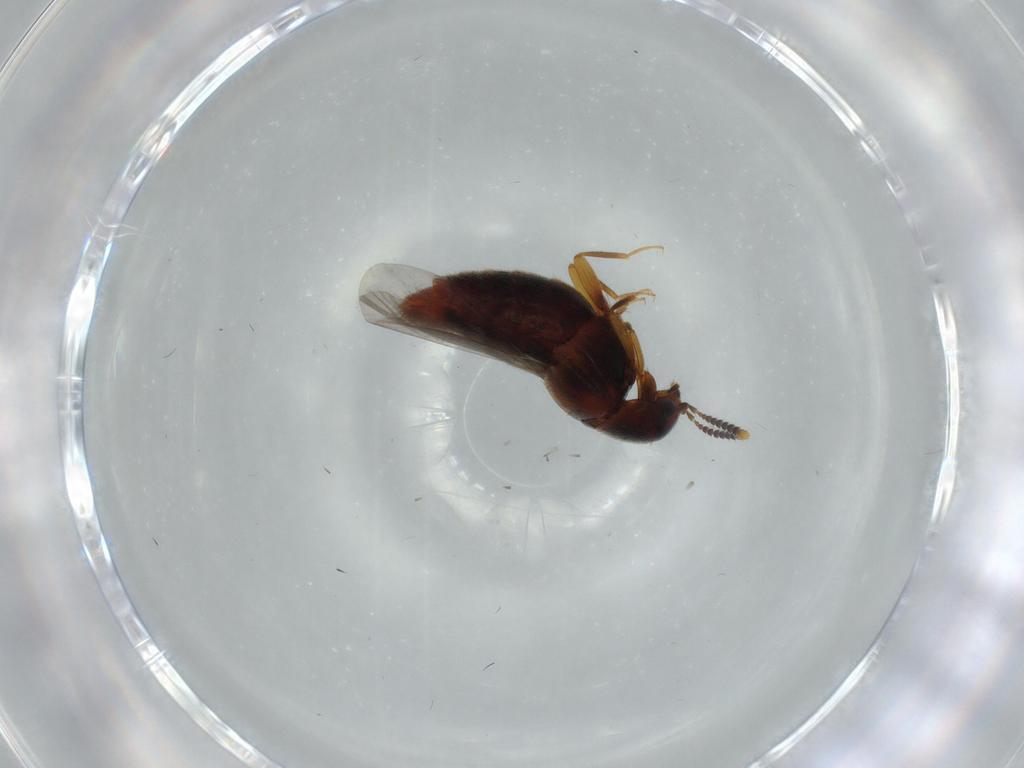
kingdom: Animalia
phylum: Arthropoda
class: Insecta
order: Coleoptera
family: Staphylinidae
